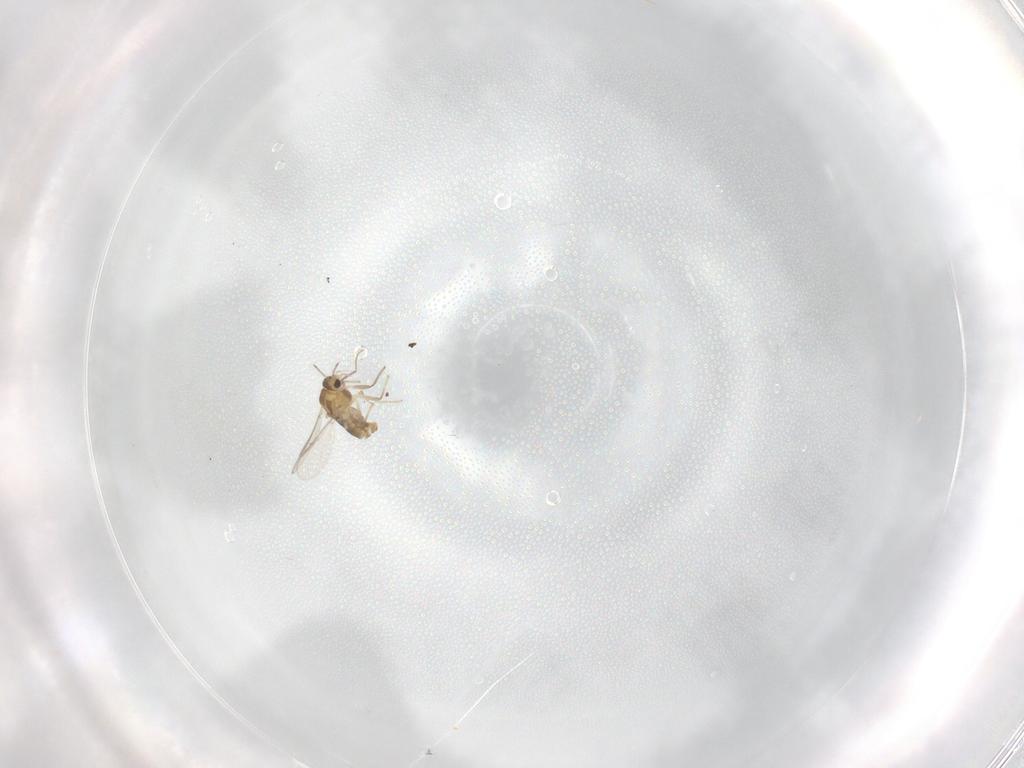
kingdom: Animalia
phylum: Arthropoda
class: Insecta
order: Diptera
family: Chironomidae
